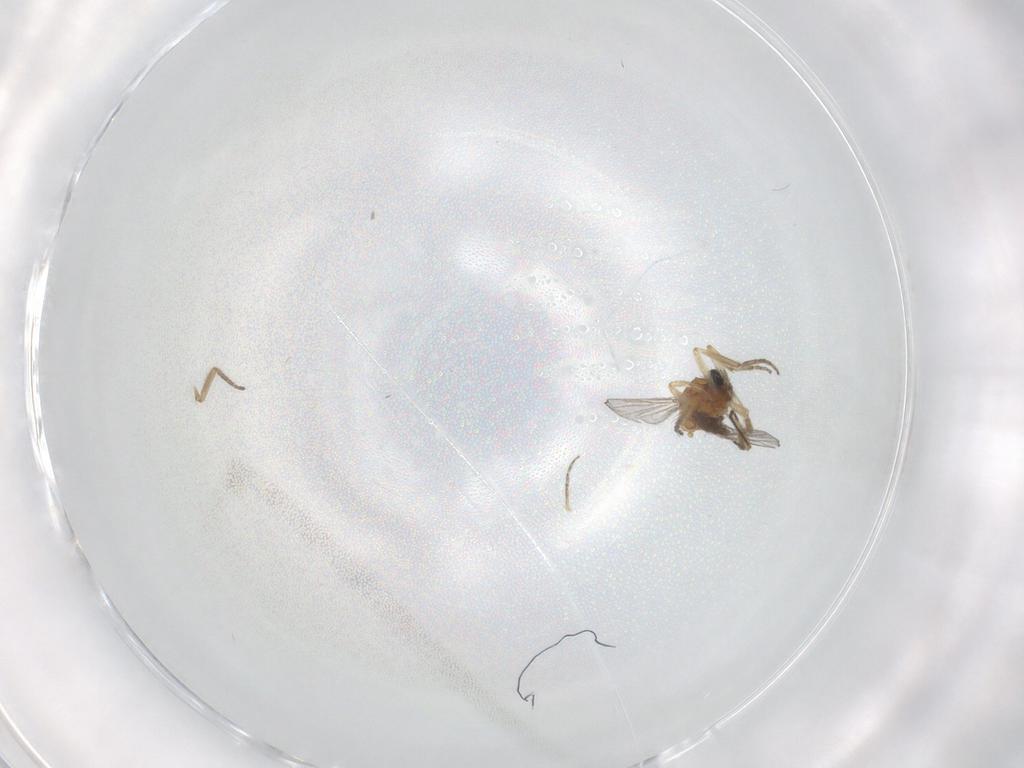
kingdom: Animalia
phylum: Arthropoda
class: Insecta
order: Diptera
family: Ceratopogonidae
